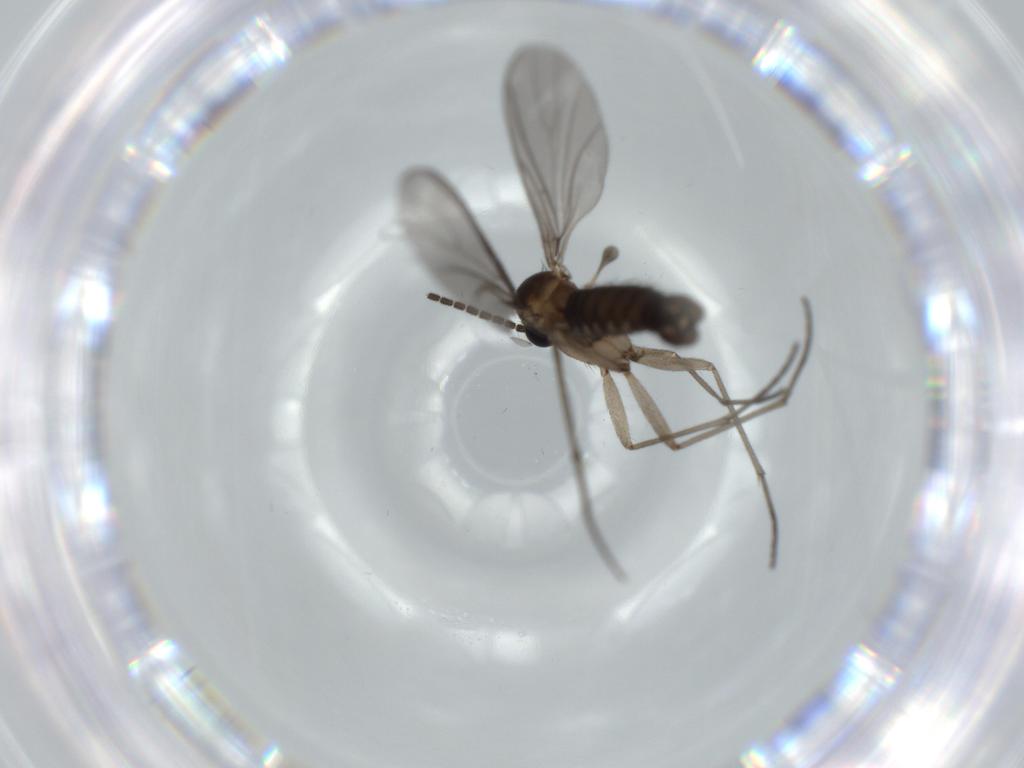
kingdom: Animalia
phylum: Arthropoda
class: Insecta
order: Diptera
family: Sciaridae
